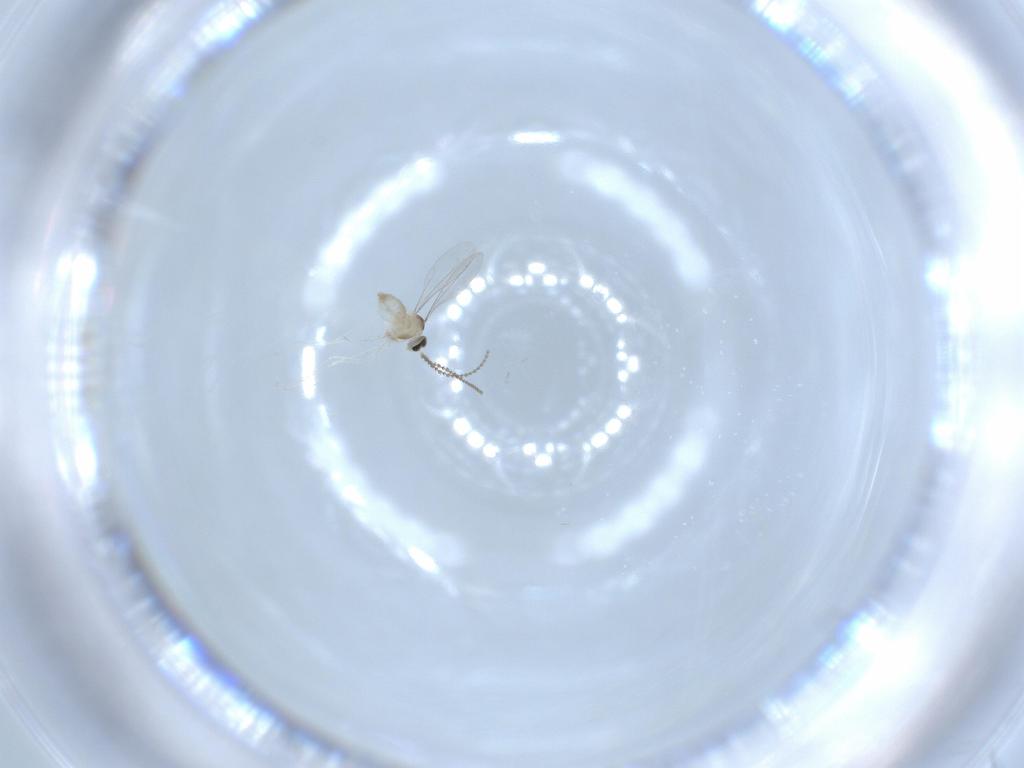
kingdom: Animalia
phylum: Arthropoda
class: Insecta
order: Diptera
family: Cecidomyiidae
